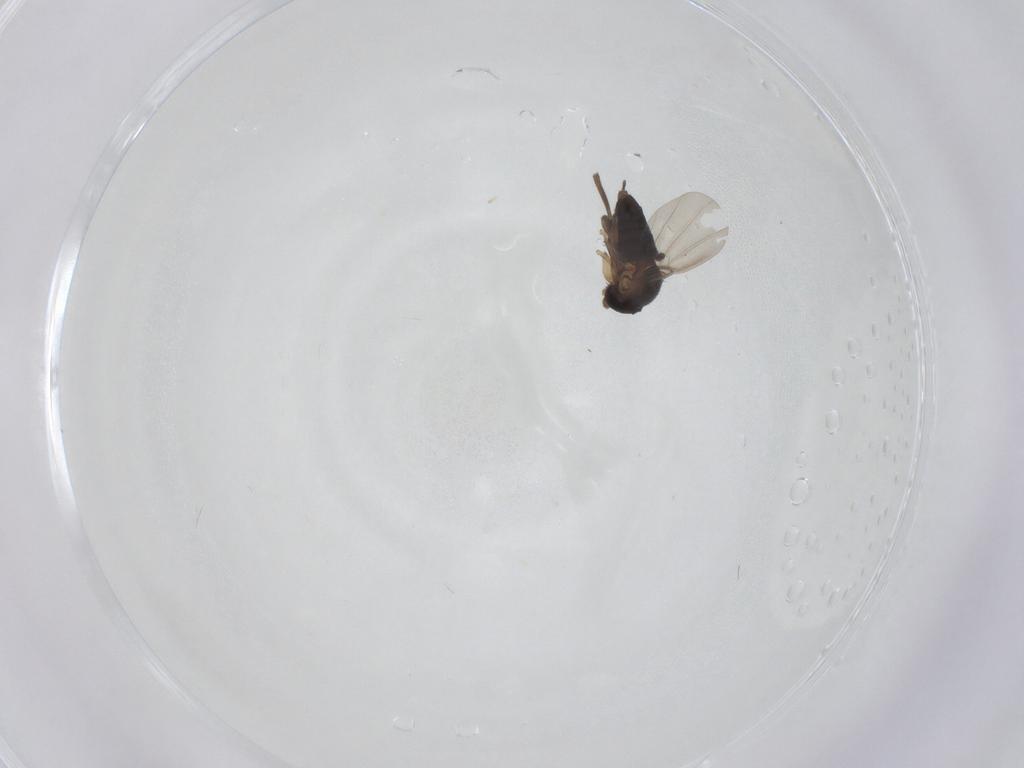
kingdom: Animalia
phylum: Arthropoda
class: Insecta
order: Diptera
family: Phoridae
